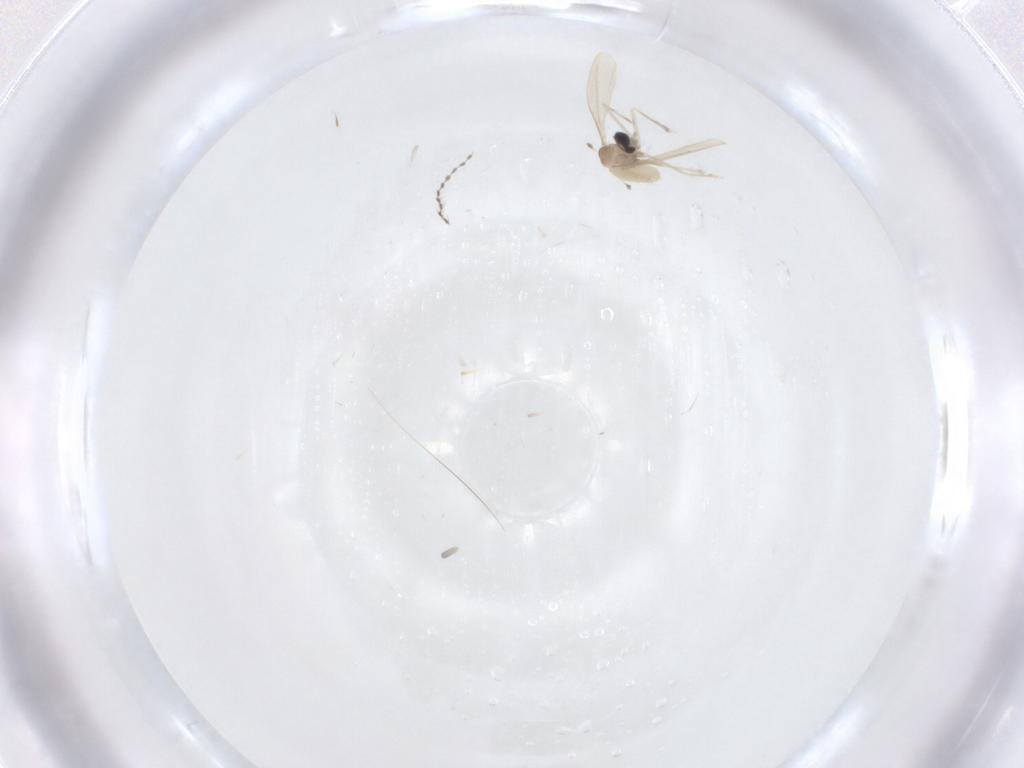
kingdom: Animalia
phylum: Arthropoda
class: Insecta
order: Diptera
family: Cecidomyiidae
